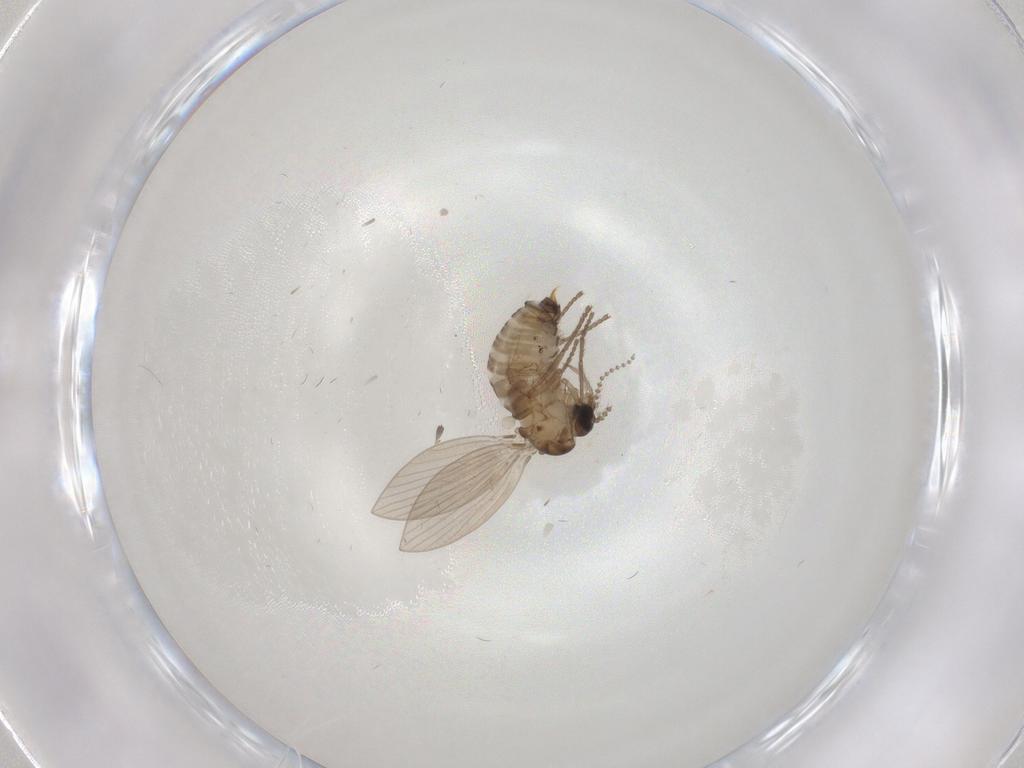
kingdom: Animalia
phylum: Arthropoda
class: Insecta
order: Diptera
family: Psychodidae
